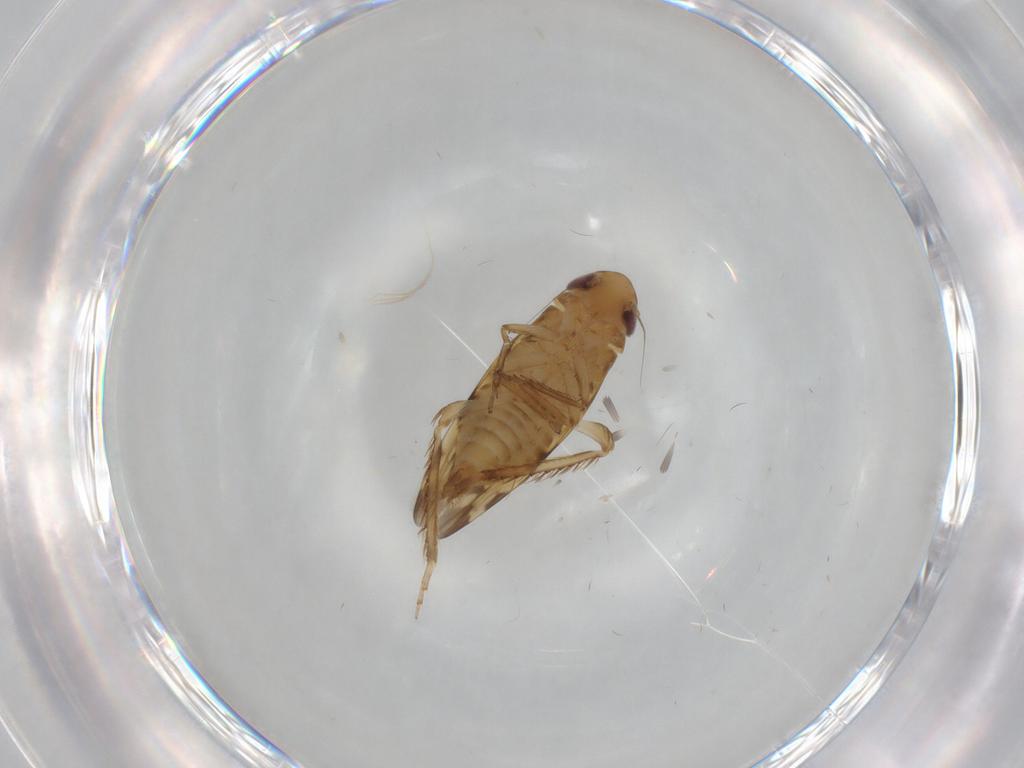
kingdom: Animalia
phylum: Arthropoda
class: Insecta
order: Hemiptera
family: Cicadellidae
